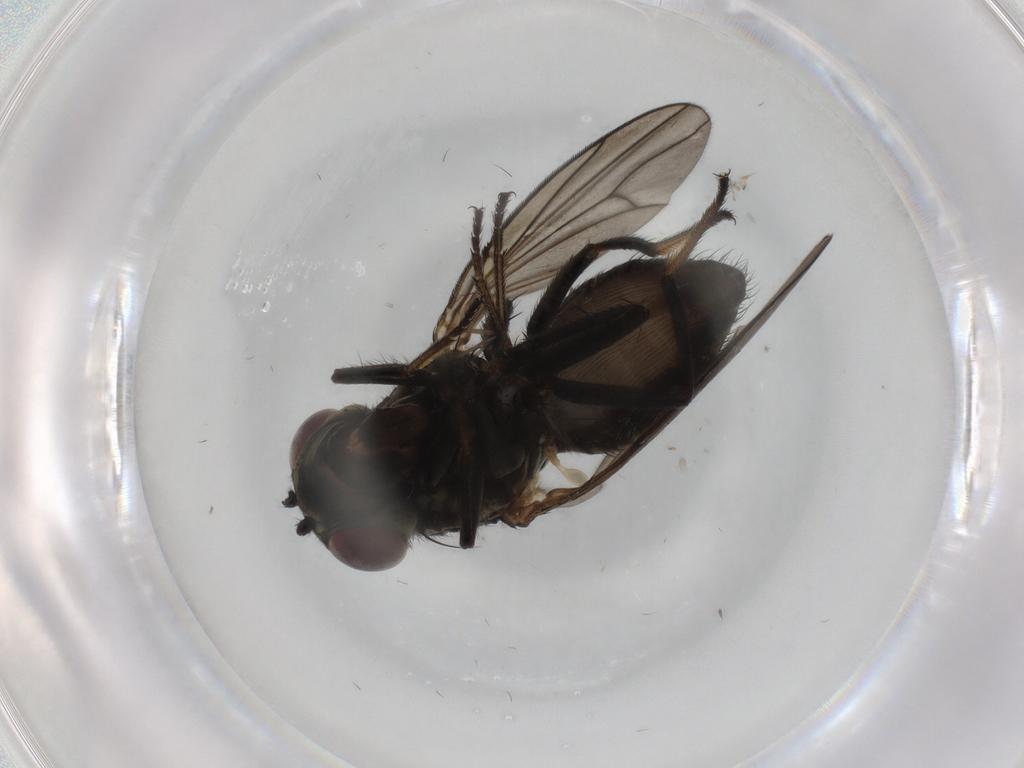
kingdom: Animalia
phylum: Arthropoda
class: Insecta
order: Diptera
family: Ephydridae
